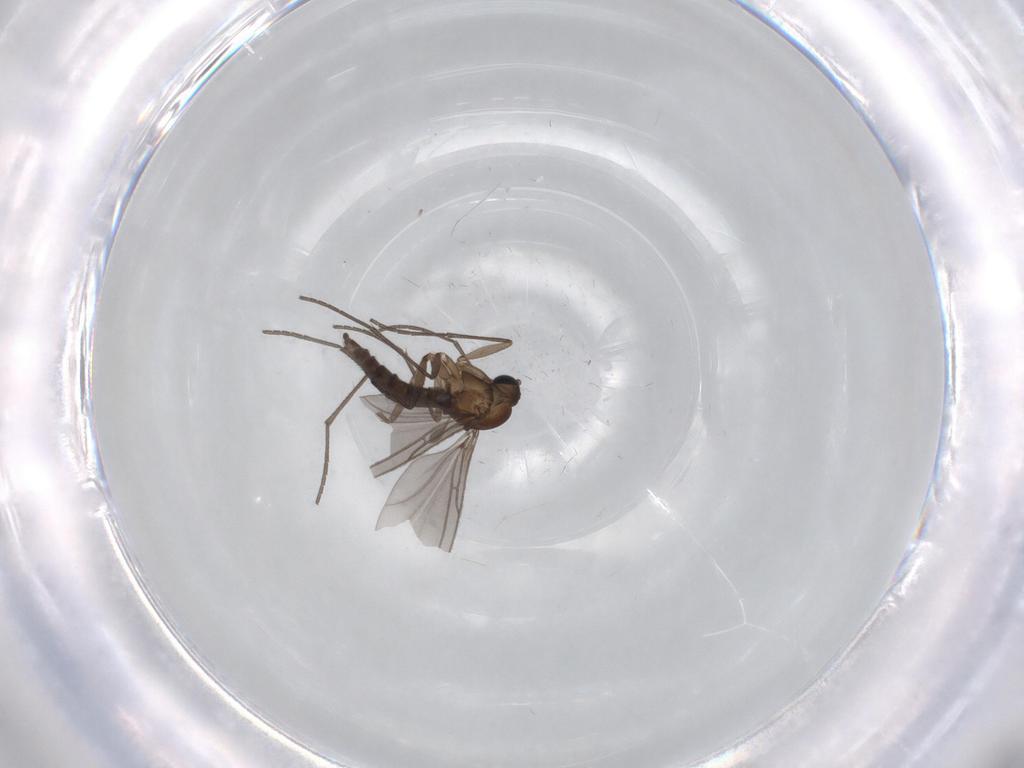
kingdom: Animalia
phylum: Arthropoda
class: Insecta
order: Diptera
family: Sciaridae
